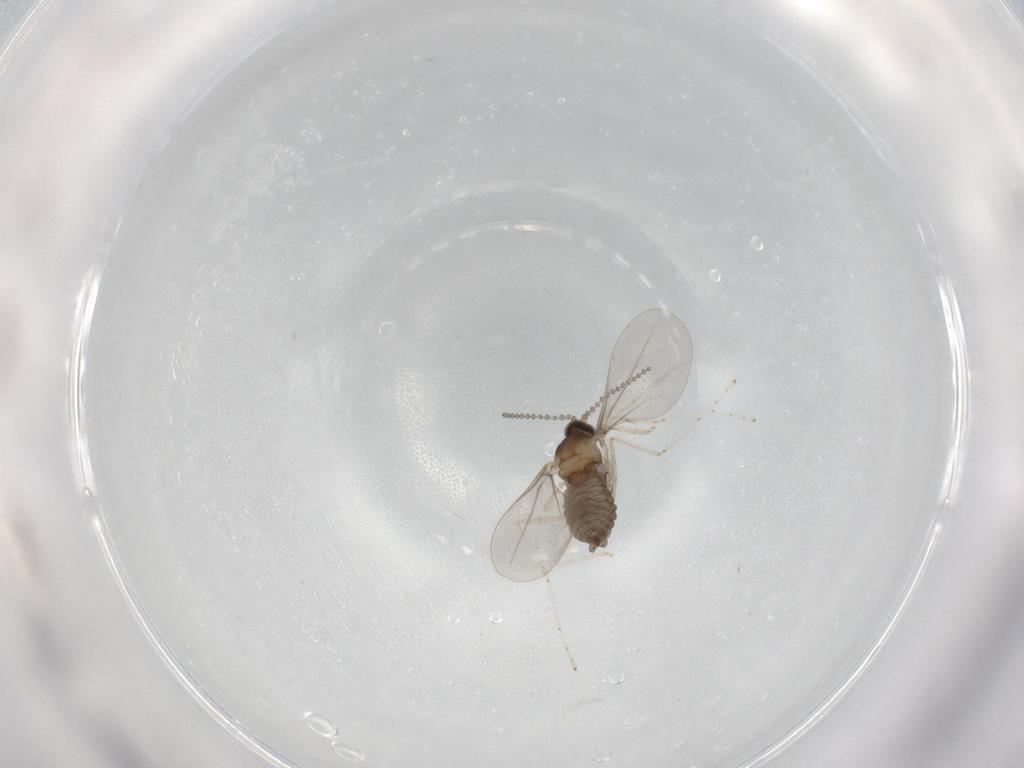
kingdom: Animalia
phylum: Arthropoda
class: Insecta
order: Diptera
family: Cecidomyiidae
